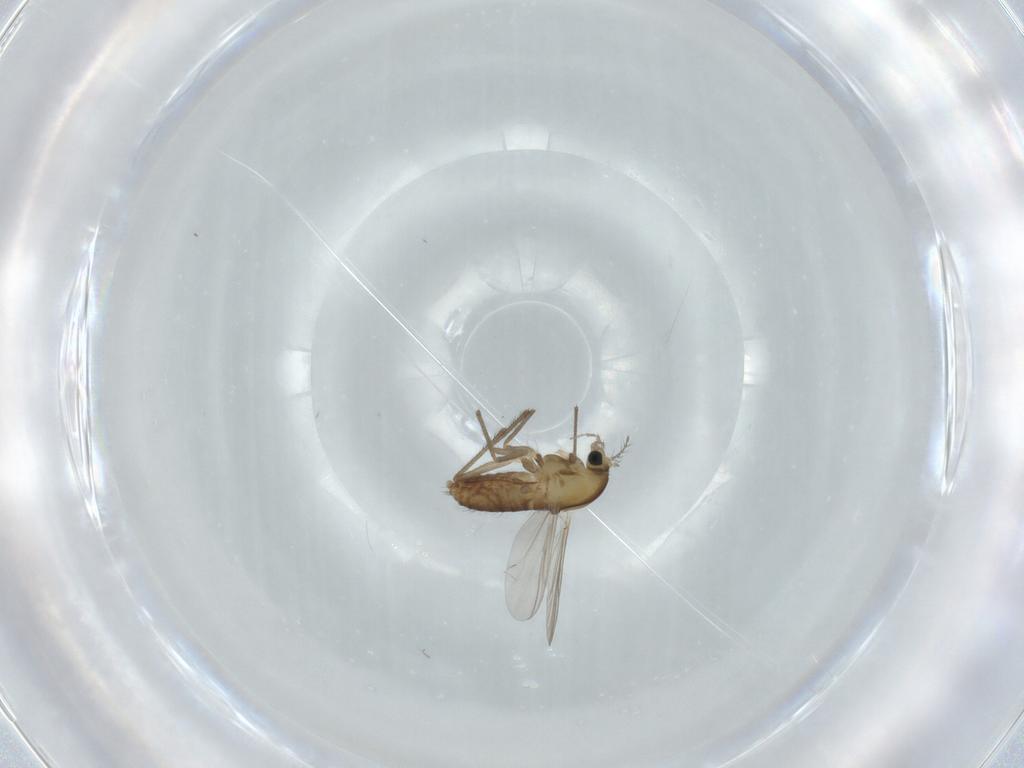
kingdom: Animalia
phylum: Arthropoda
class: Insecta
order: Diptera
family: Chironomidae
